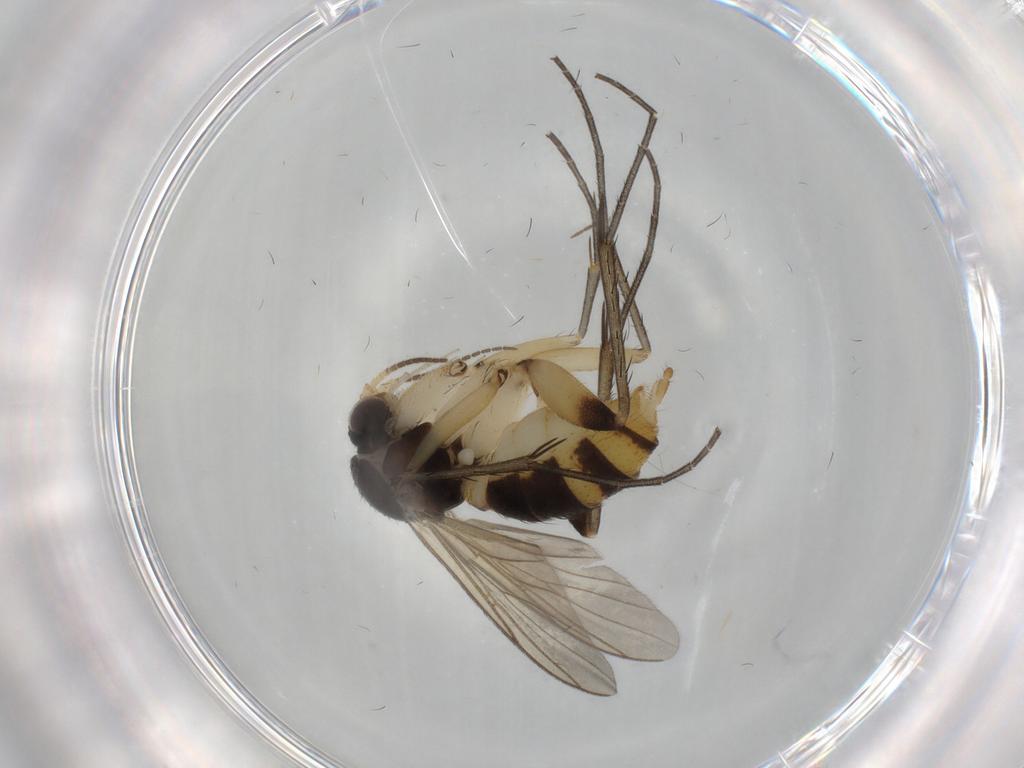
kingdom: Animalia
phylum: Arthropoda
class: Insecta
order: Diptera
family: Mycetophilidae
